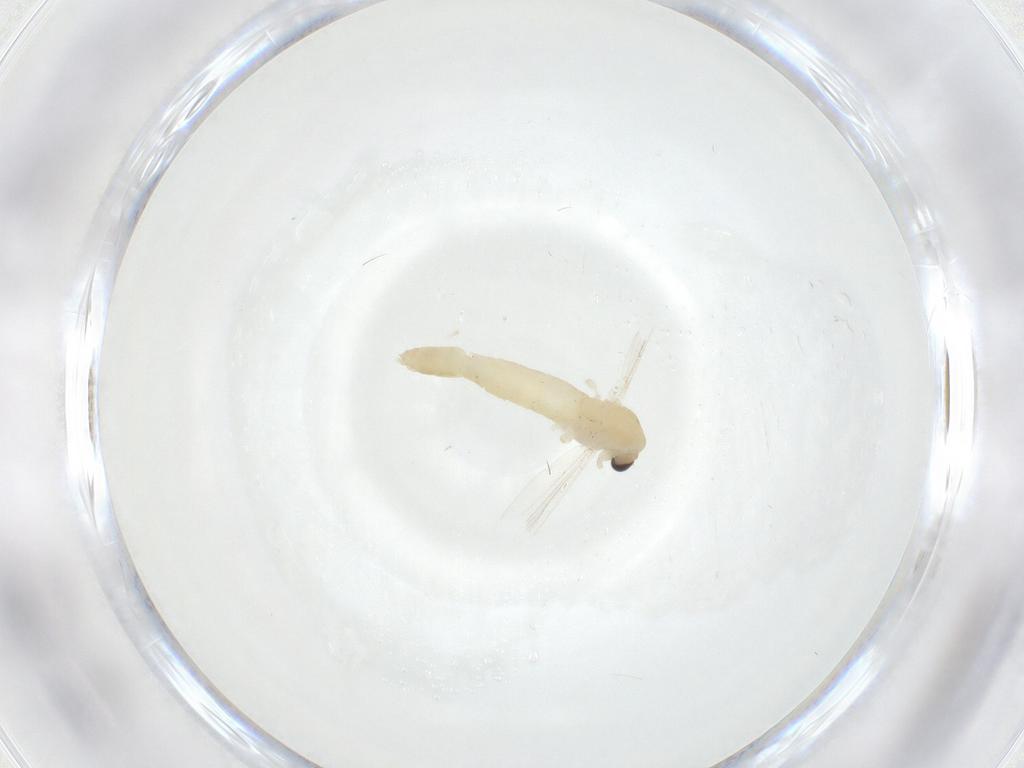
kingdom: Animalia
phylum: Arthropoda
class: Insecta
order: Diptera
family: Chironomidae
